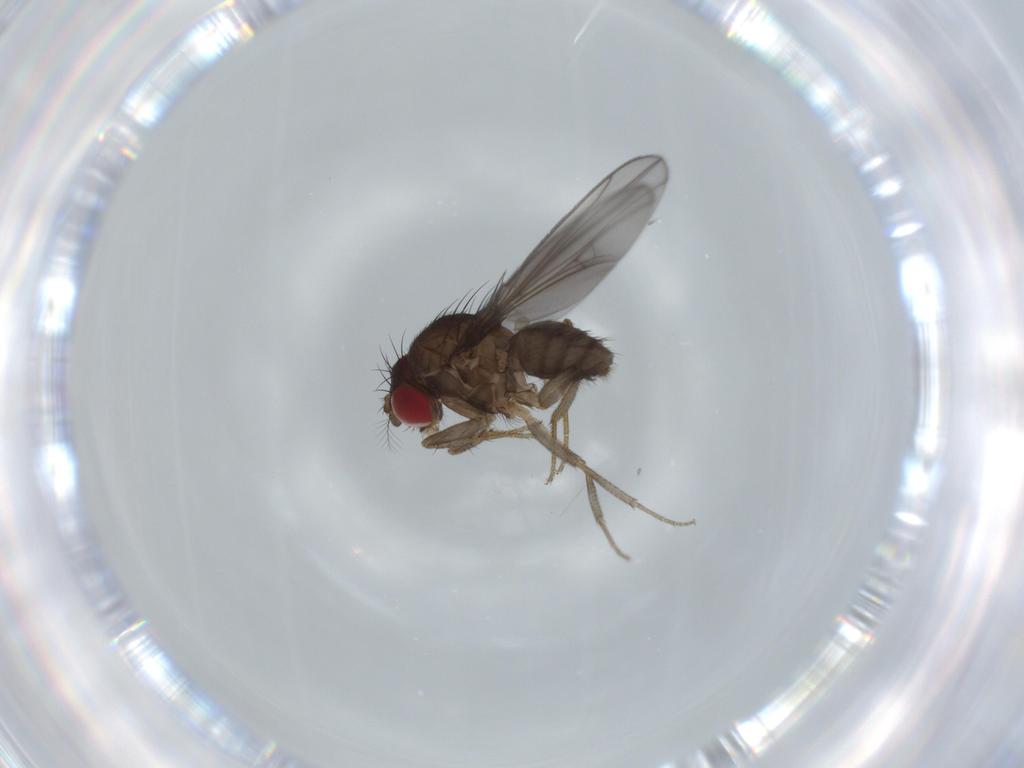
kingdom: Animalia
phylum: Arthropoda
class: Insecta
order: Diptera
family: Drosophilidae
